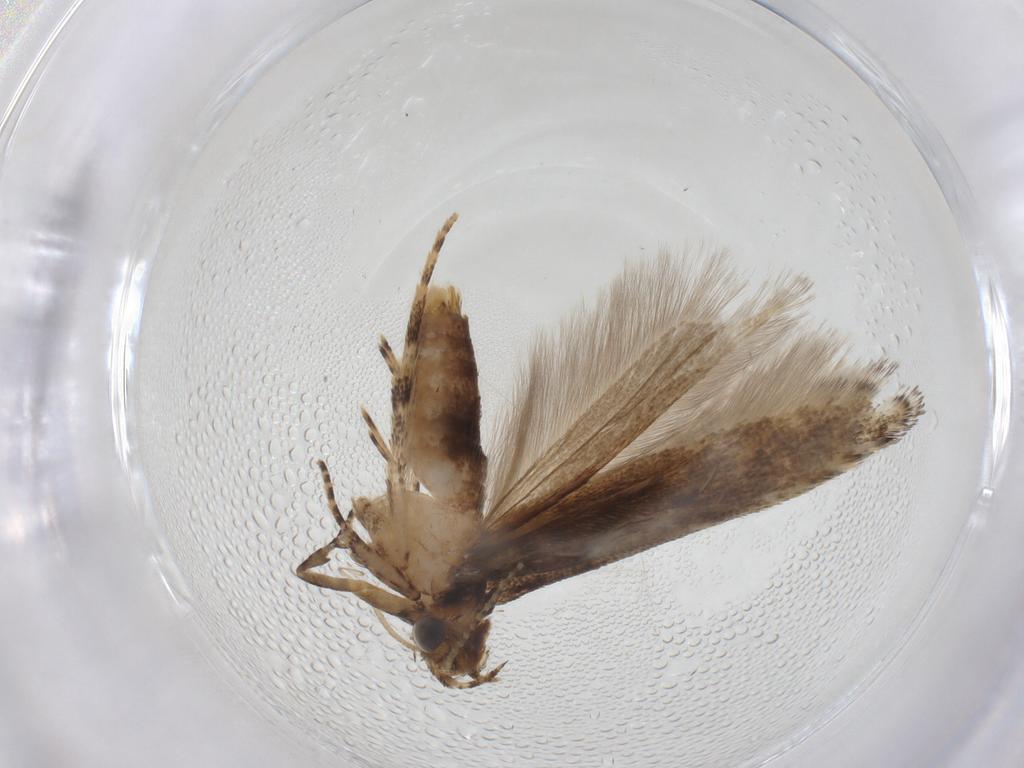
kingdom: Animalia
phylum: Arthropoda
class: Insecta
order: Lepidoptera
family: Gelechiidae
